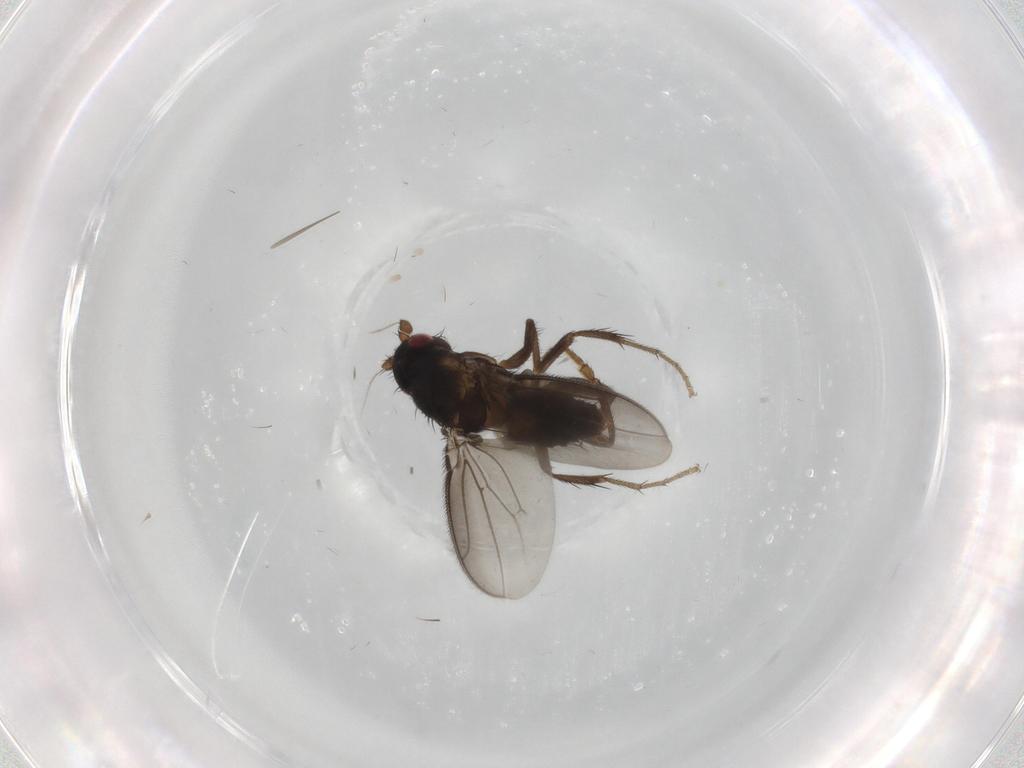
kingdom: Animalia
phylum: Arthropoda
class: Insecta
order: Diptera
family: Sphaeroceridae
